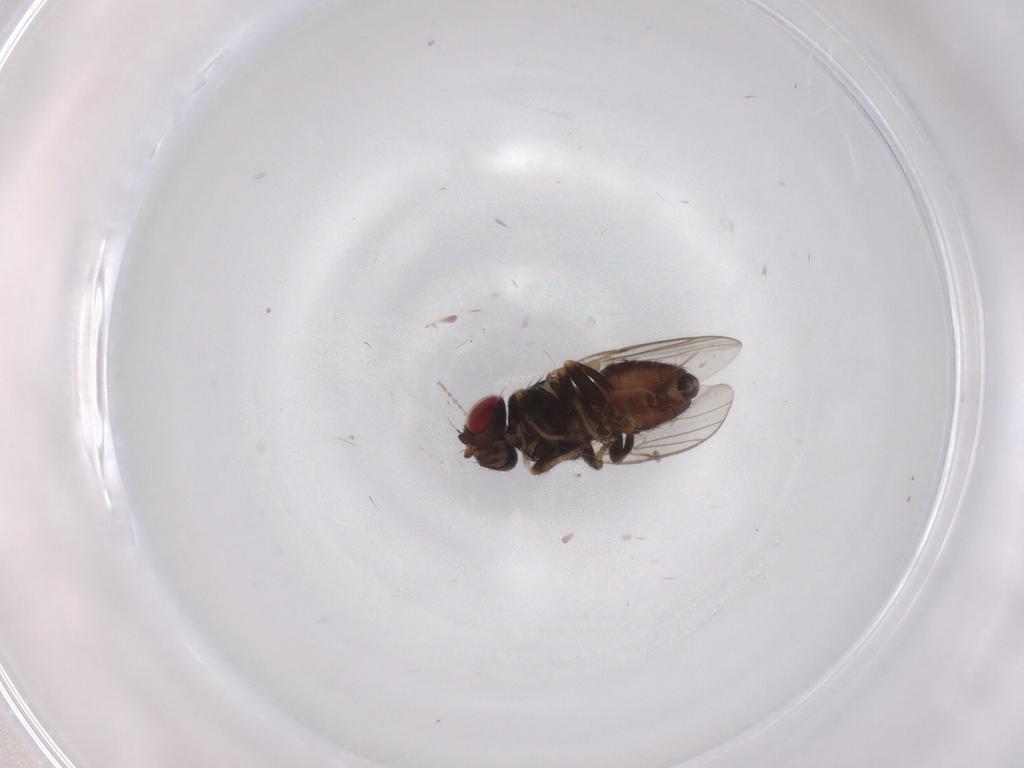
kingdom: Animalia
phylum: Arthropoda
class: Insecta
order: Diptera
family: Chloropidae
